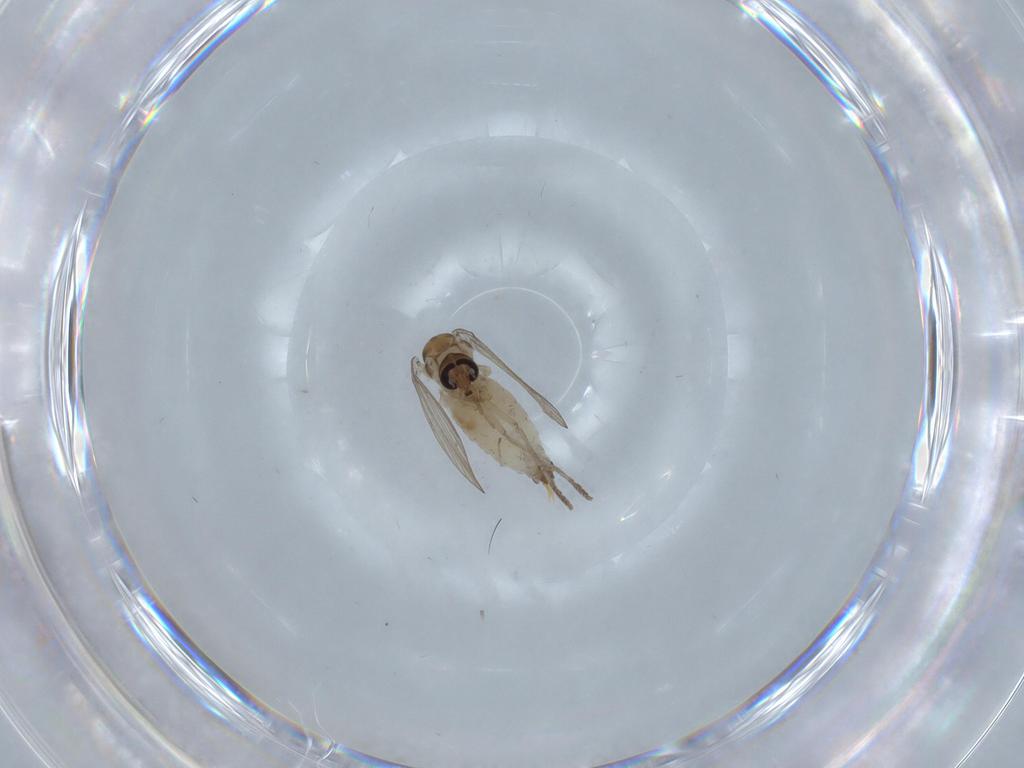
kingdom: Animalia
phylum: Arthropoda
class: Insecta
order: Diptera
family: Psychodidae
